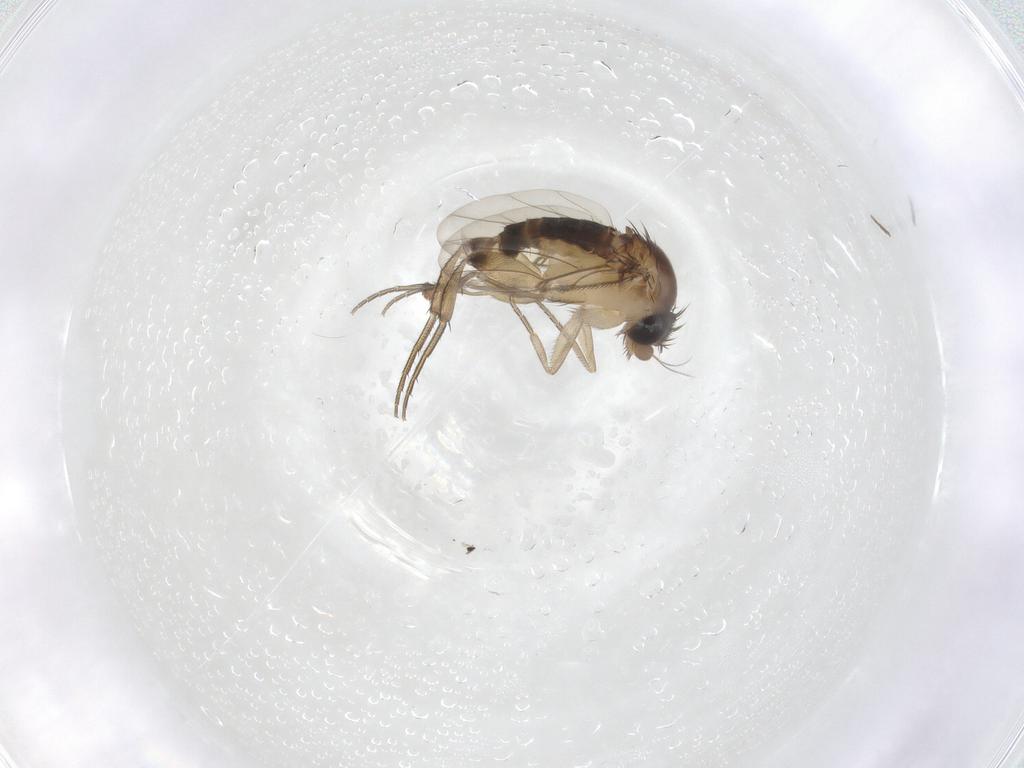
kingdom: Animalia
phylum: Arthropoda
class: Insecta
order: Diptera
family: Phoridae
